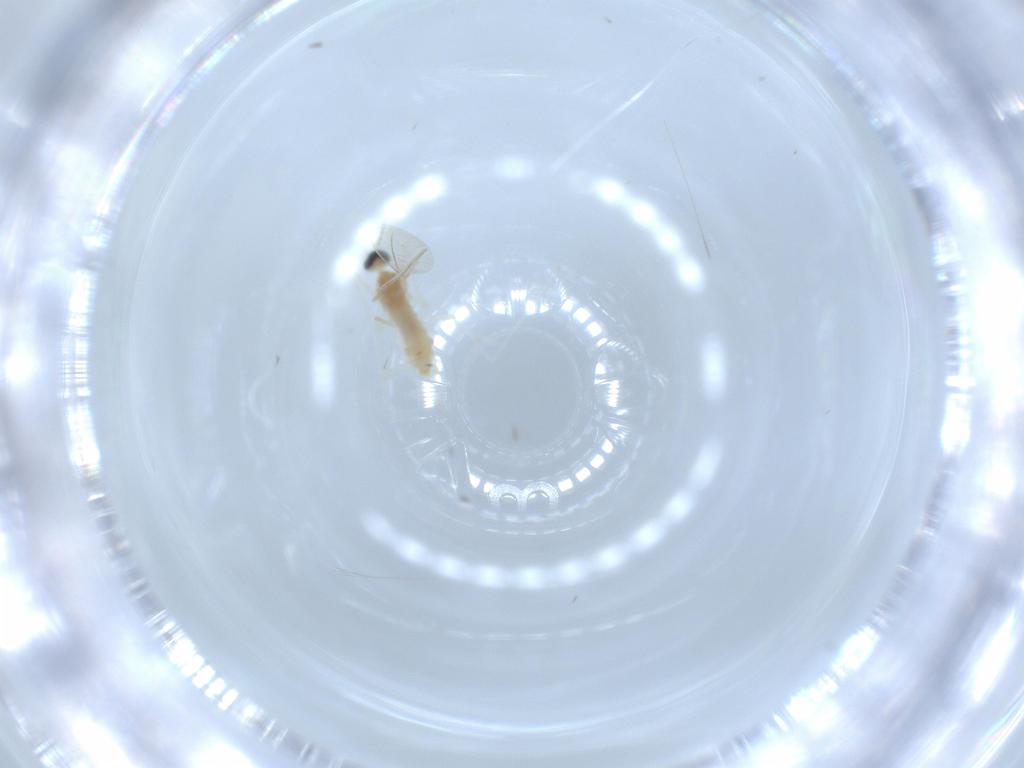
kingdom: Animalia
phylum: Arthropoda
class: Insecta
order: Diptera
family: Cecidomyiidae
